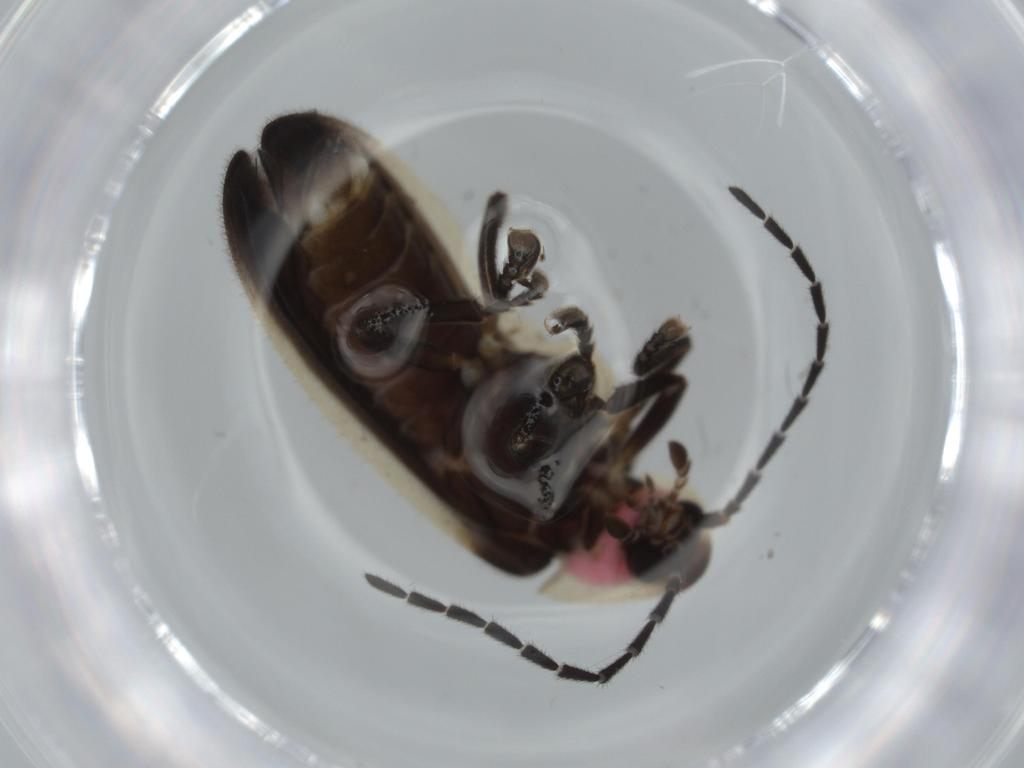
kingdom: Animalia
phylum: Arthropoda
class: Insecta
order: Coleoptera
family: Lampyridae
